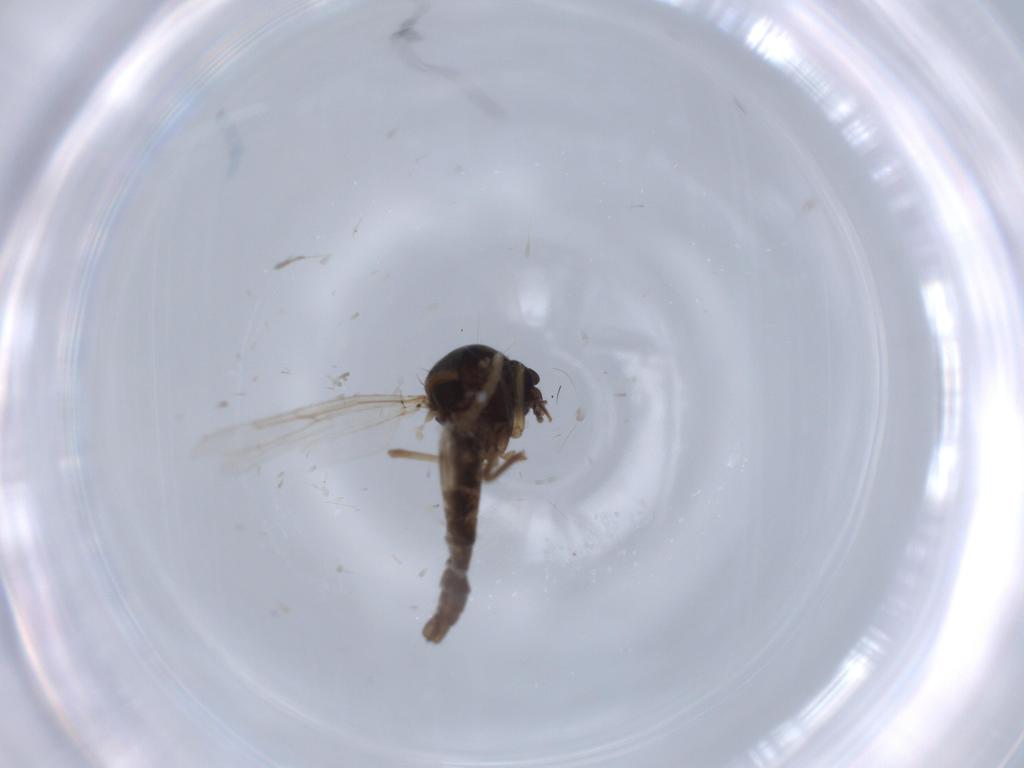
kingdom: Animalia
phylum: Arthropoda
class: Insecta
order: Diptera
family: Ceratopogonidae
